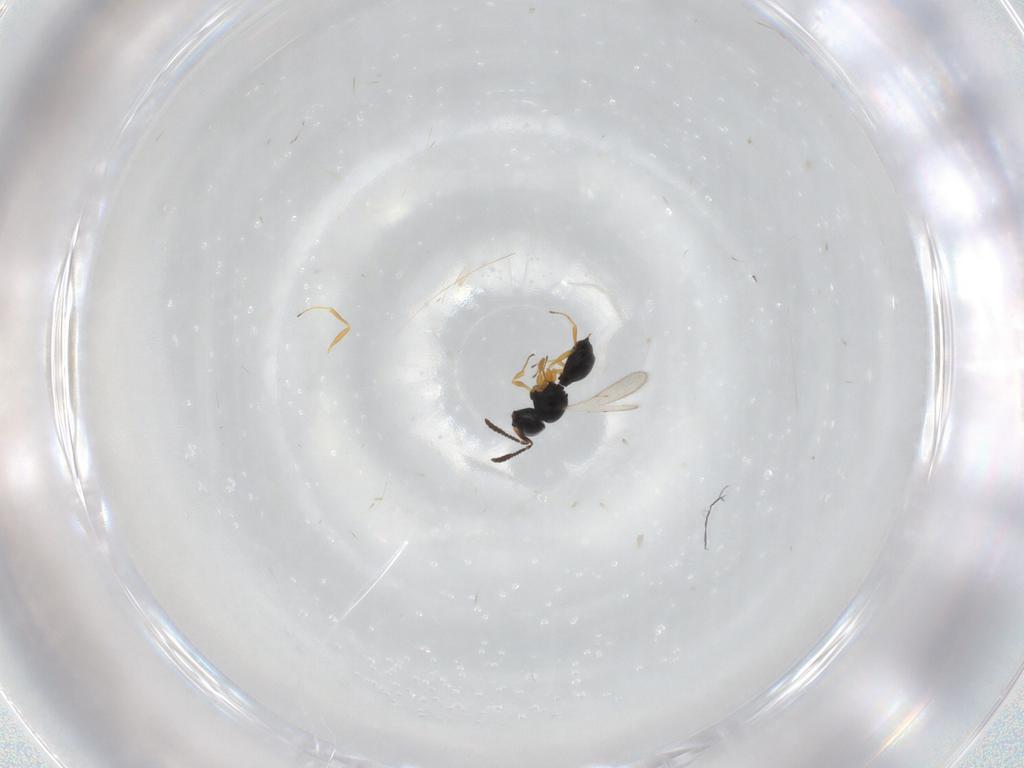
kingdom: Animalia
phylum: Arthropoda
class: Insecta
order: Hymenoptera
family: Scelionidae
